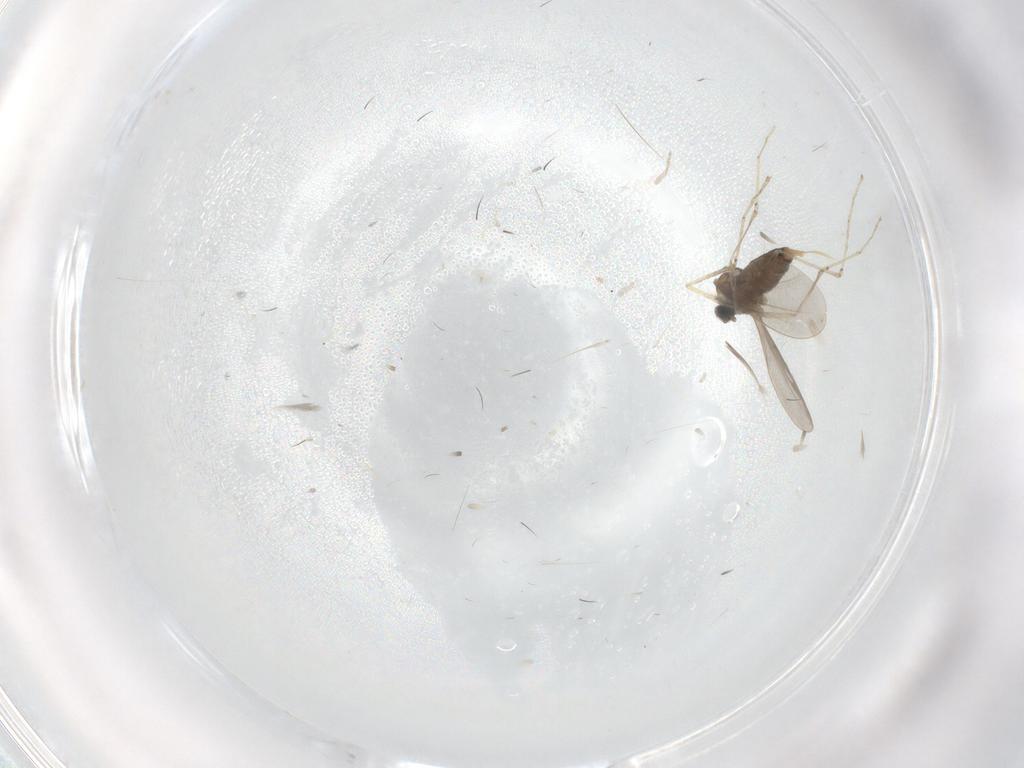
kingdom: Animalia
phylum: Arthropoda
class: Insecta
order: Diptera
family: Cecidomyiidae
